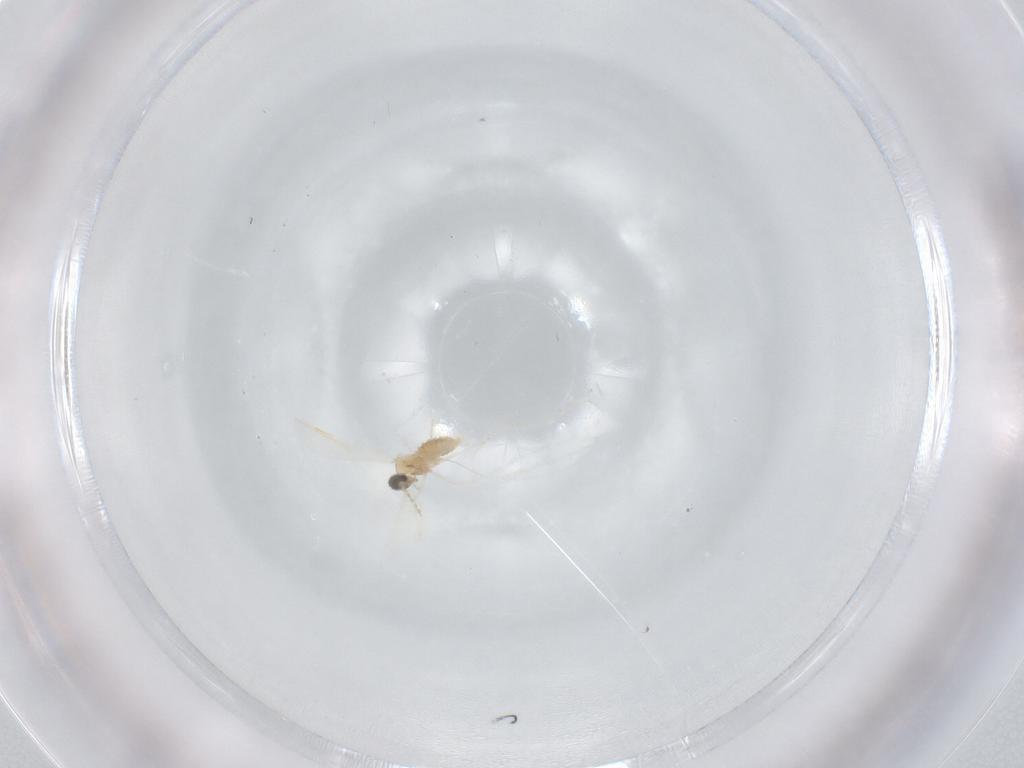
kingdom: Animalia
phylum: Arthropoda
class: Insecta
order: Diptera
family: Cecidomyiidae
